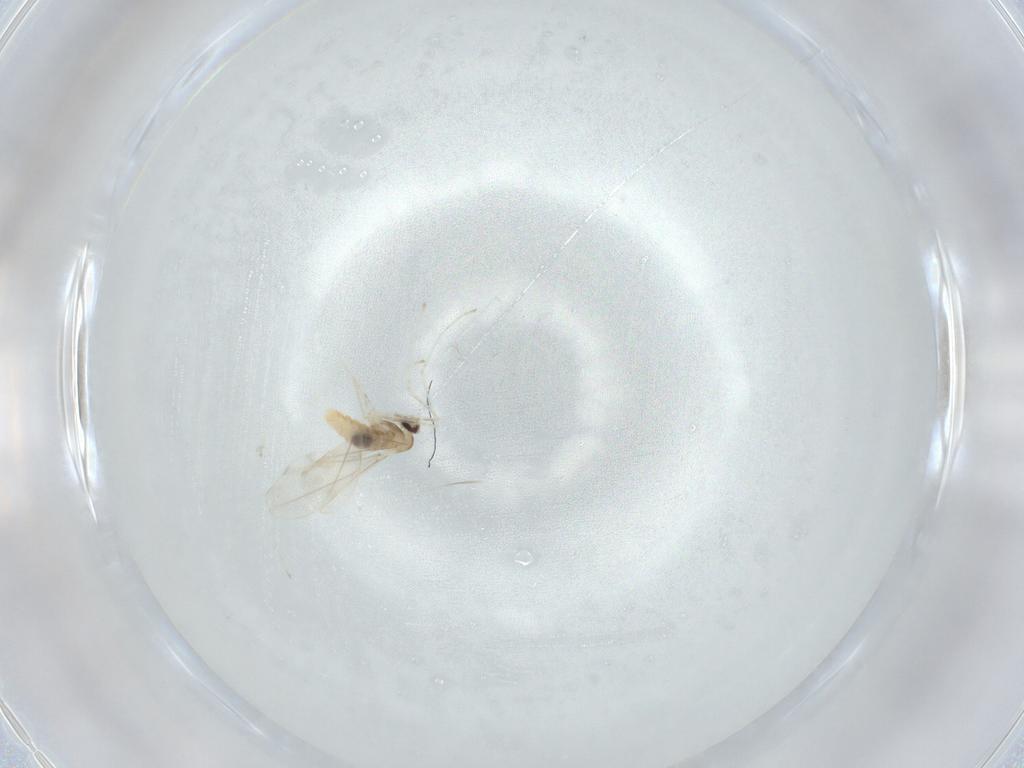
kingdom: Animalia
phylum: Arthropoda
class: Insecta
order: Diptera
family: Cecidomyiidae
